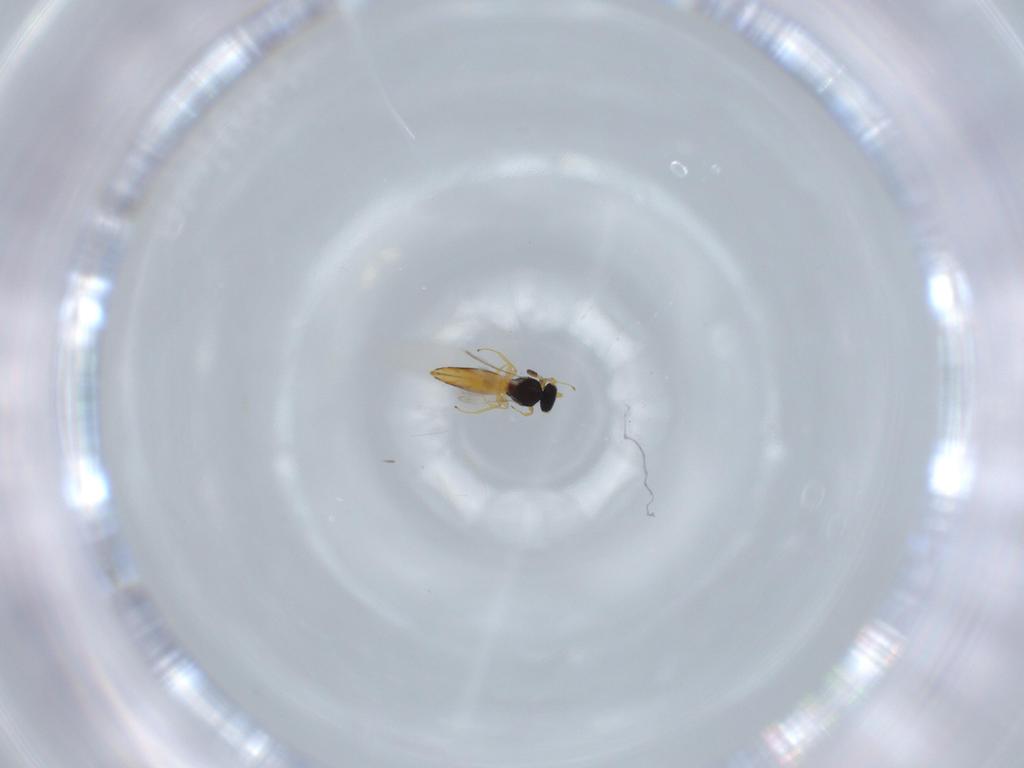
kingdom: Animalia
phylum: Arthropoda
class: Insecta
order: Hymenoptera
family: Scelionidae
